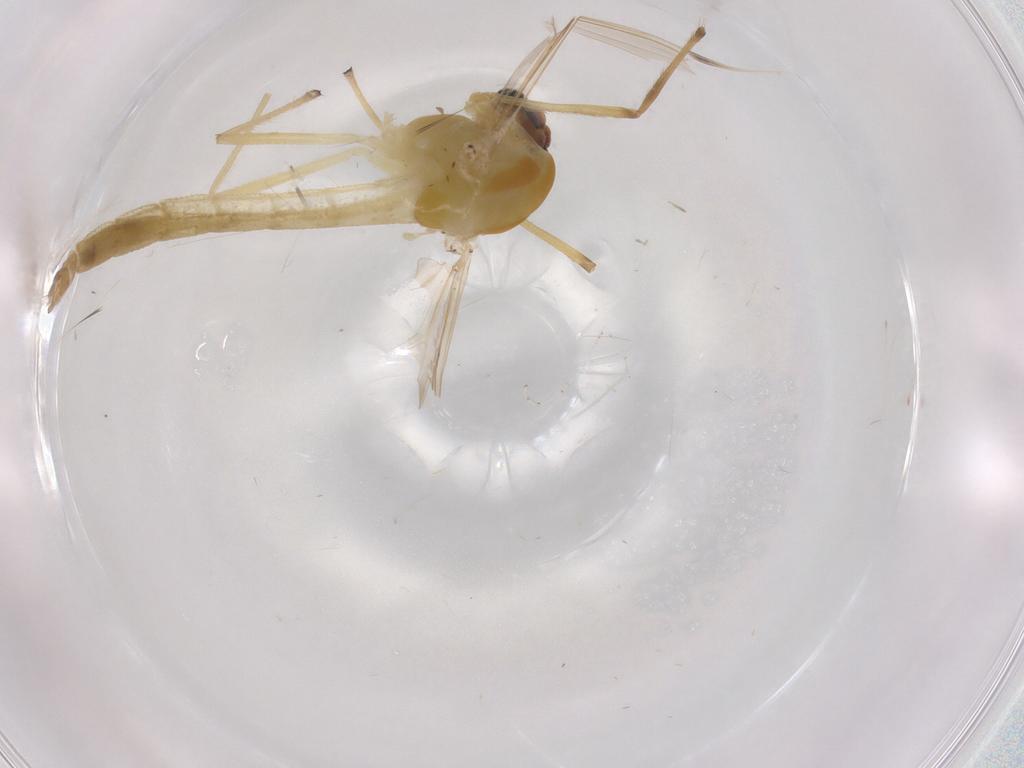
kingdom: Animalia
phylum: Arthropoda
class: Insecta
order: Diptera
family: Chironomidae
